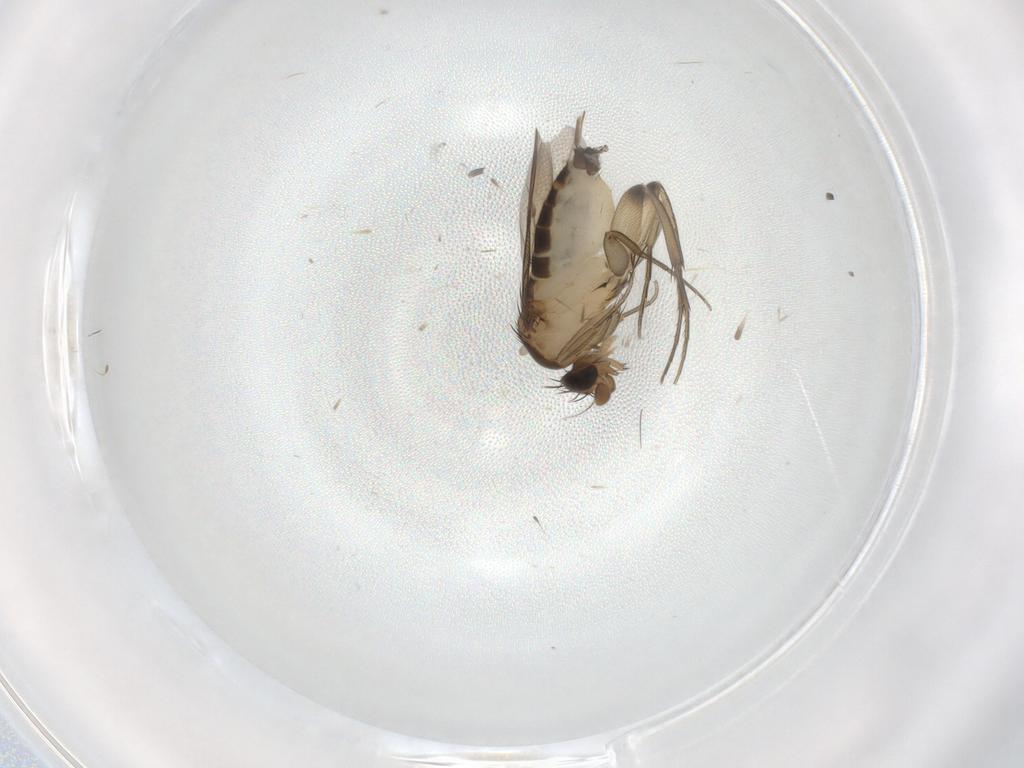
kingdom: Animalia
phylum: Arthropoda
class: Insecta
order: Diptera
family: Phoridae
